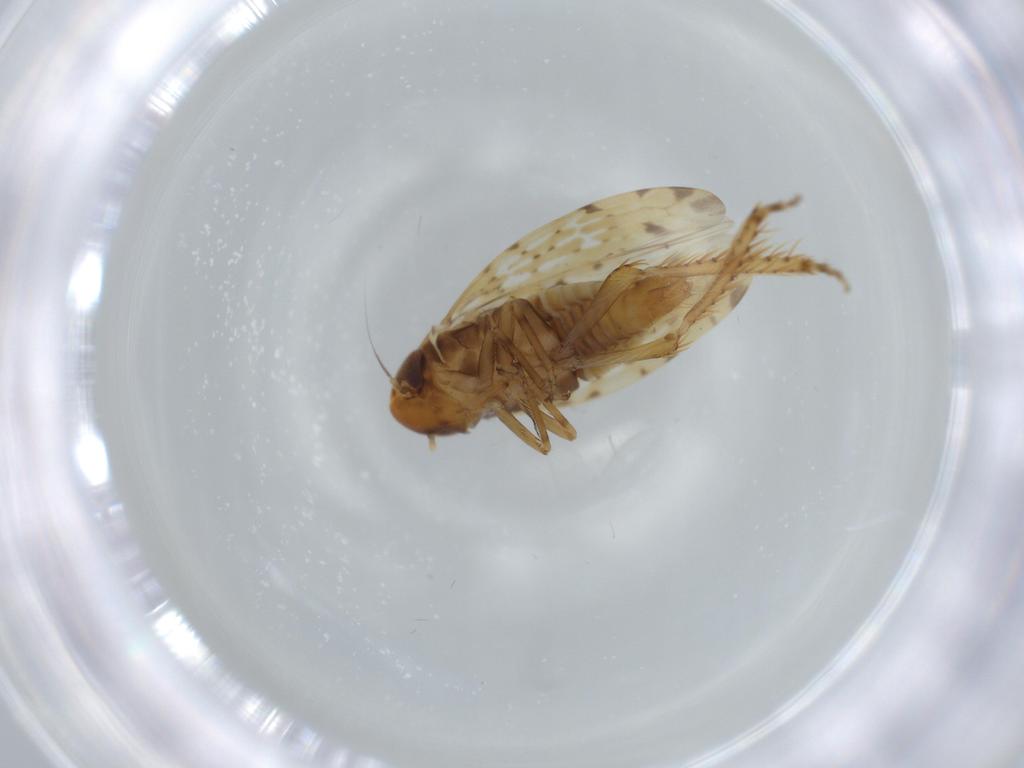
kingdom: Animalia
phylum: Arthropoda
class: Insecta
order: Hemiptera
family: Cicadellidae
